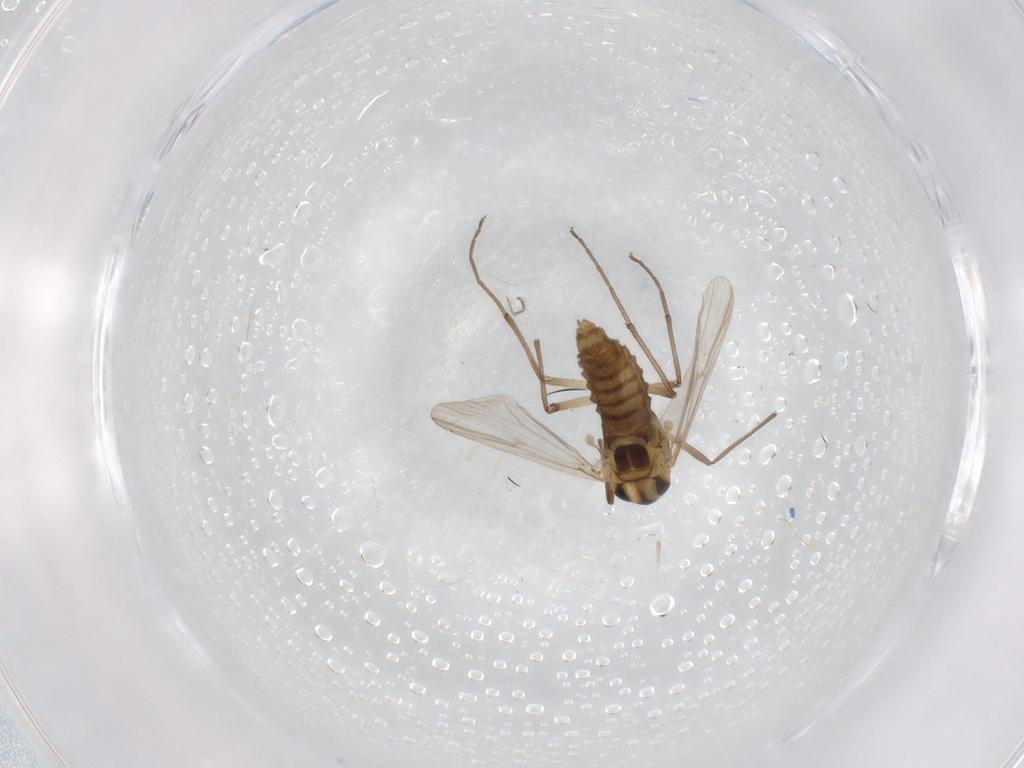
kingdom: Animalia
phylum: Arthropoda
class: Insecta
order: Diptera
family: Chironomidae
